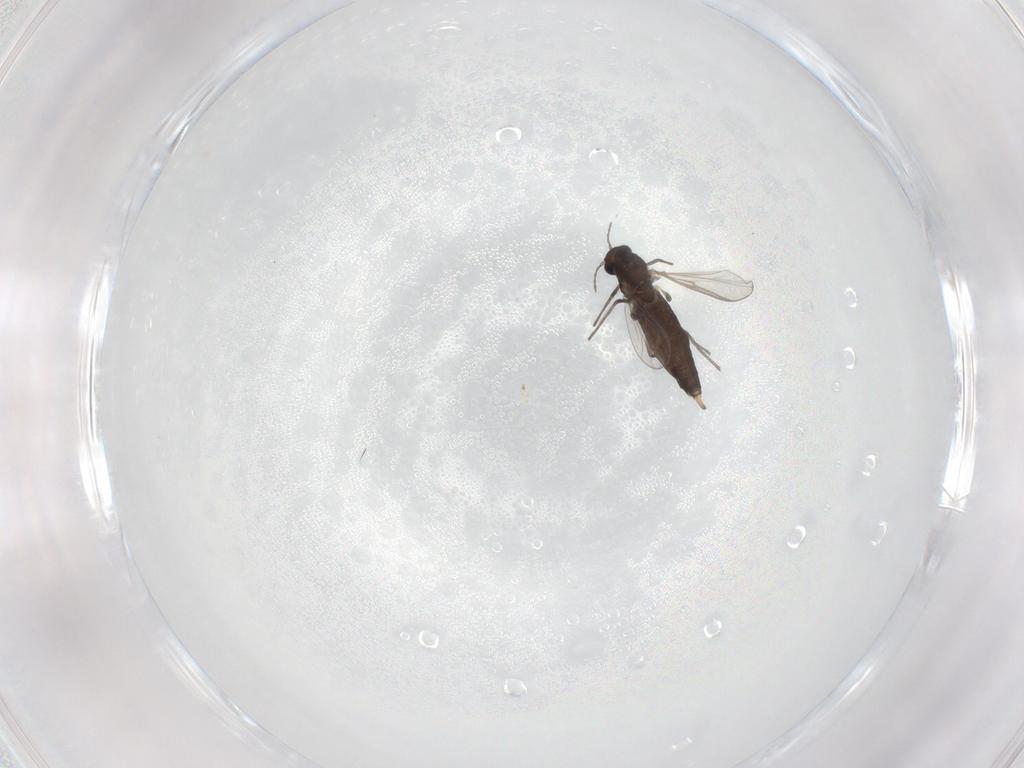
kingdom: Animalia
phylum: Arthropoda
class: Insecta
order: Diptera
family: Chironomidae
